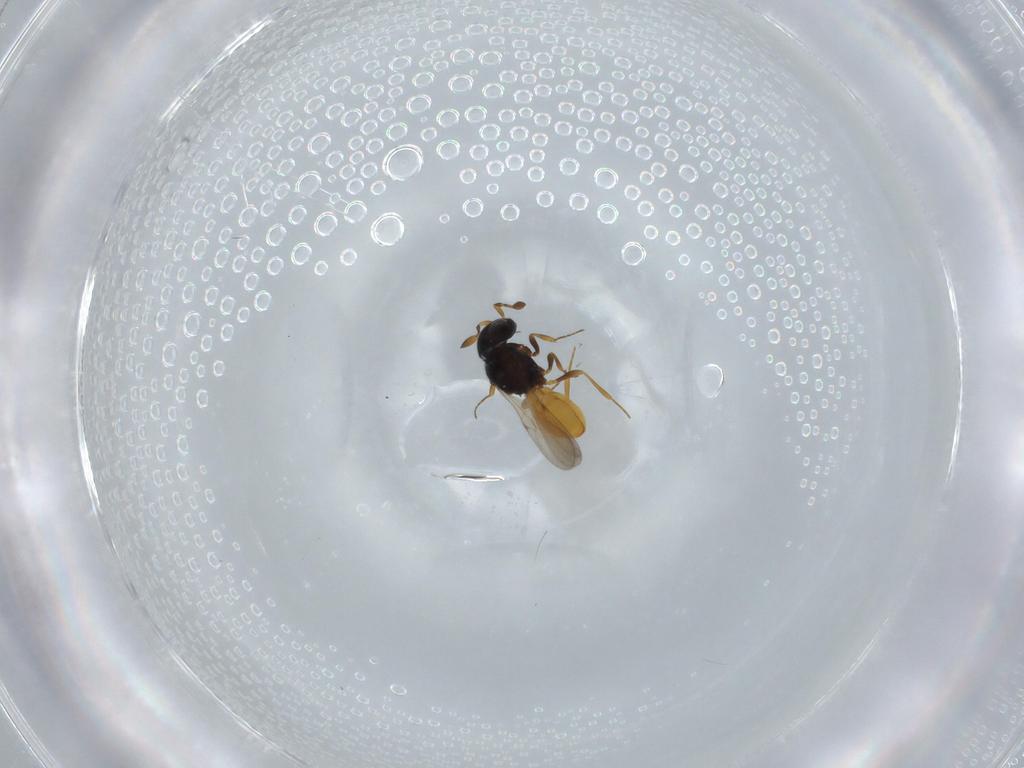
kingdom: Animalia
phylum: Arthropoda
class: Insecta
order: Hymenoptera
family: Scelionidae
